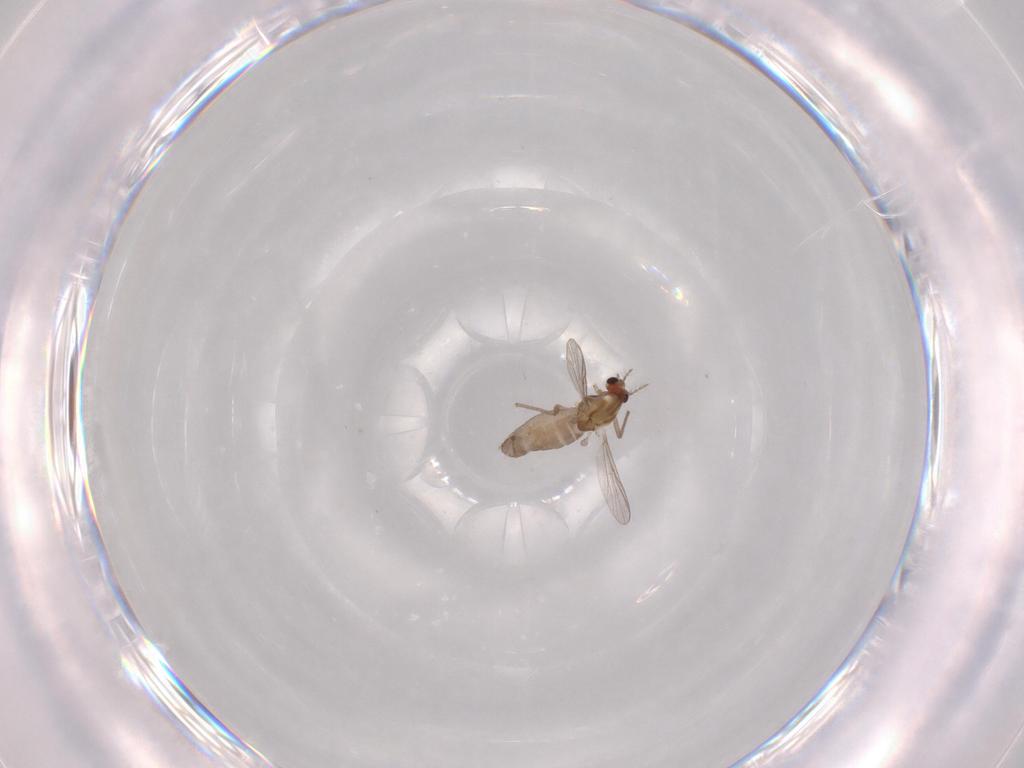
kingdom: Animalia
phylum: Arthropoda
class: Insecta
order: Diptera
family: Chironomidae
